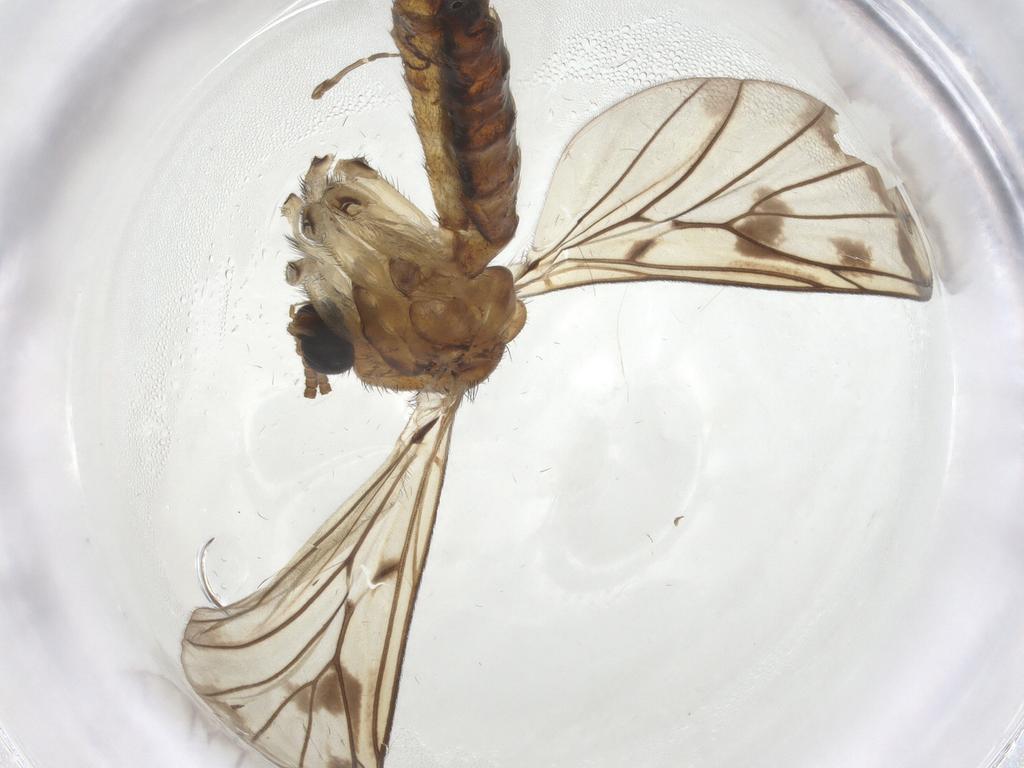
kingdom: Animalia
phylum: Arthropoda
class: Insecta
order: Diptera
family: Keroplatidae
